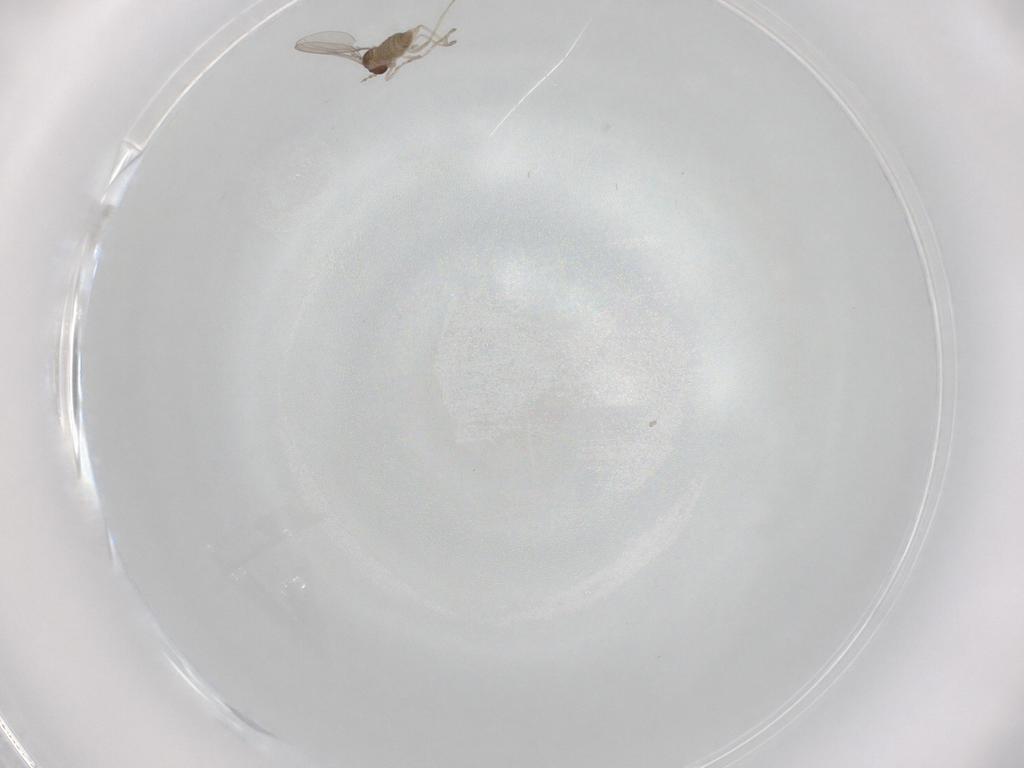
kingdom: Animalia
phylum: Arthropoda
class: Insecta
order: Diptera
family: Cecidomyiidae
